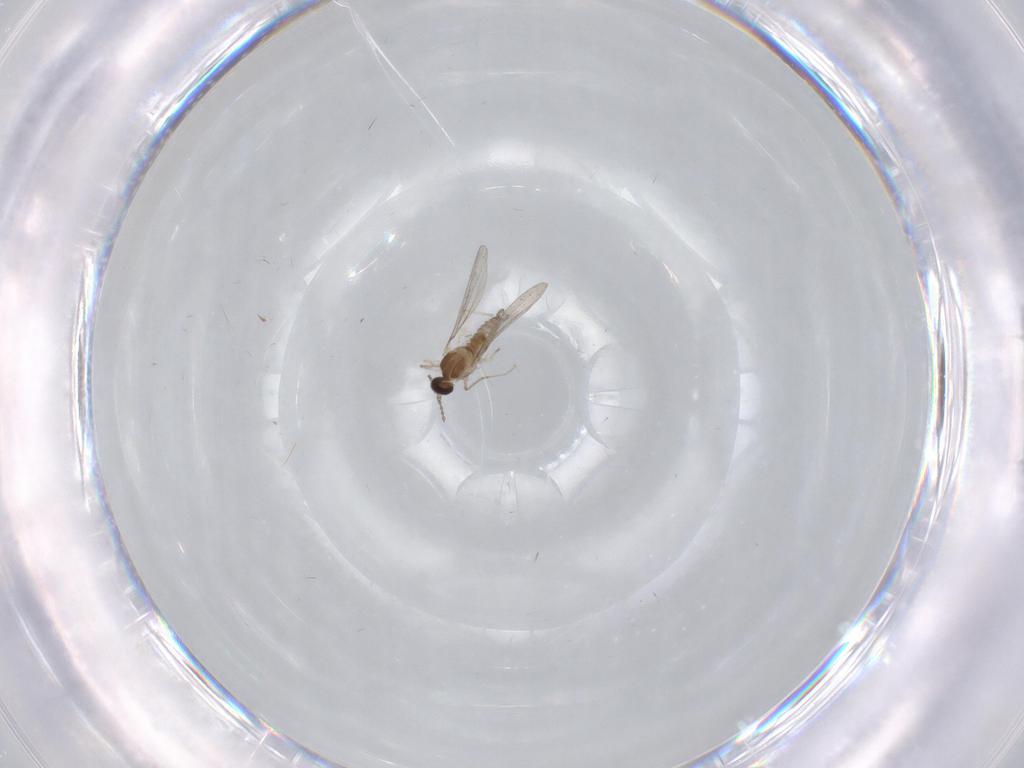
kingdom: Animalia
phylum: Arthropoda
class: Insecta
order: Diptera
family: Cecidomyiidae
